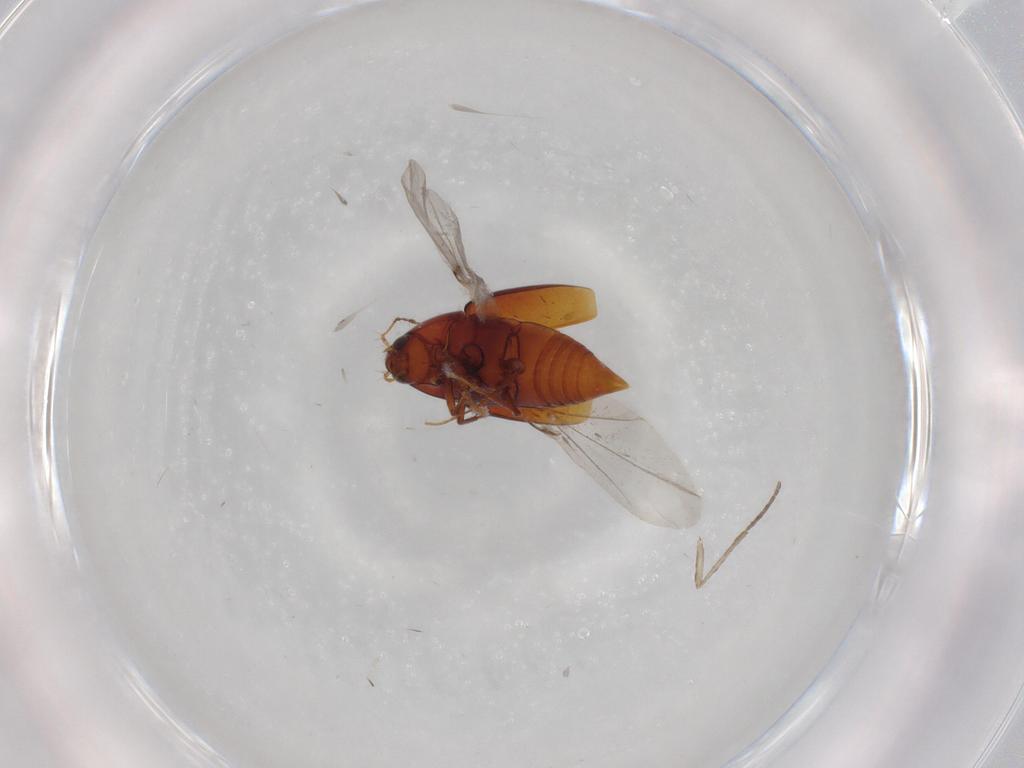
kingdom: Animalia
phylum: Arthropoda
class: Insecta
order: Coleoptera
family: Staphylinidae
